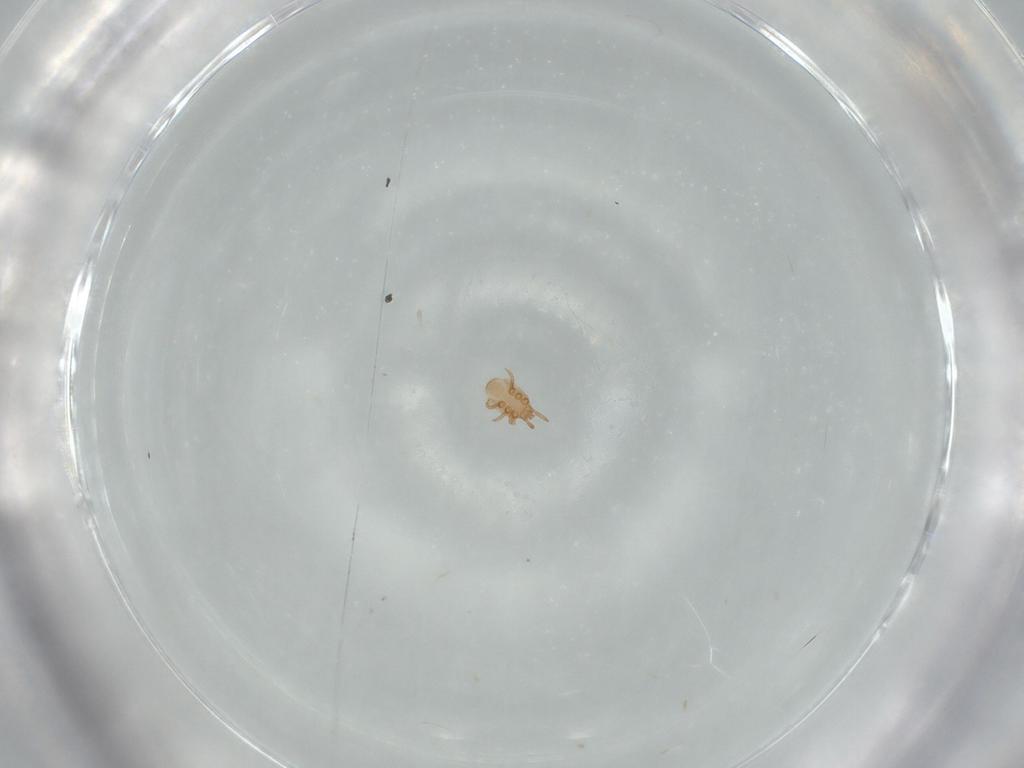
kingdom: Animalia
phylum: Arthropoda
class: Arachnida
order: Mesostigmata
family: Dinychidae
